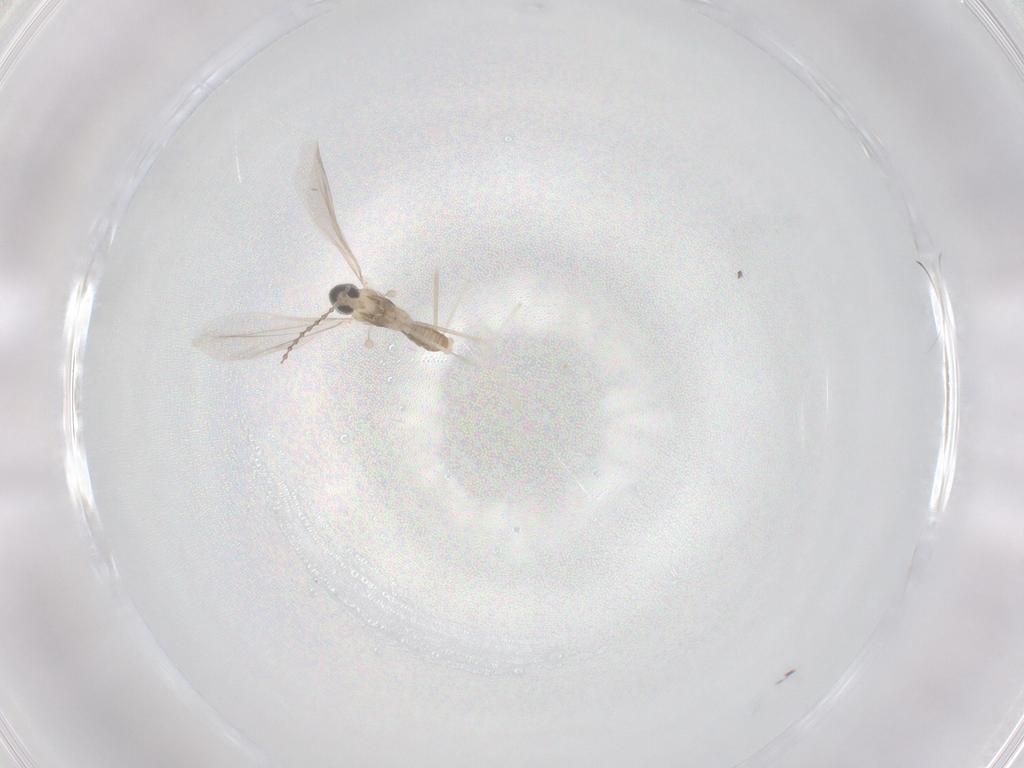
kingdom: Animalia
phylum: Arthropoda
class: Insecta
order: Diptera
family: Cecidomyiidae
